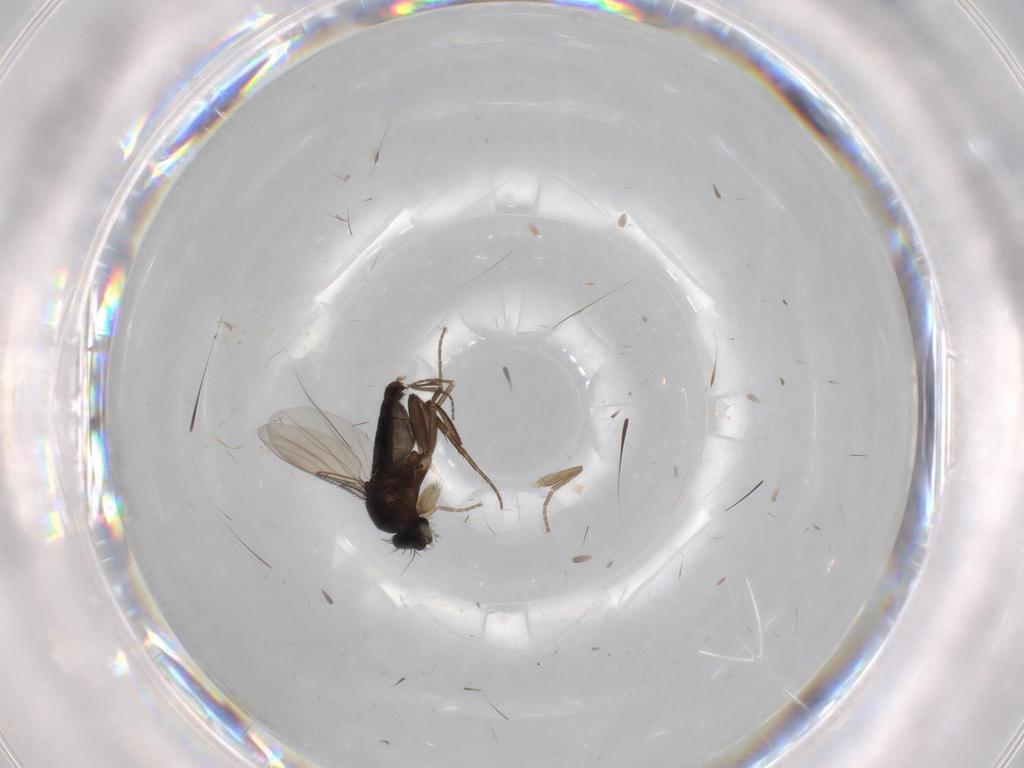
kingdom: Animalia
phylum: Arthropoda
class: Insecta
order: Diptera
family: Phoridae
